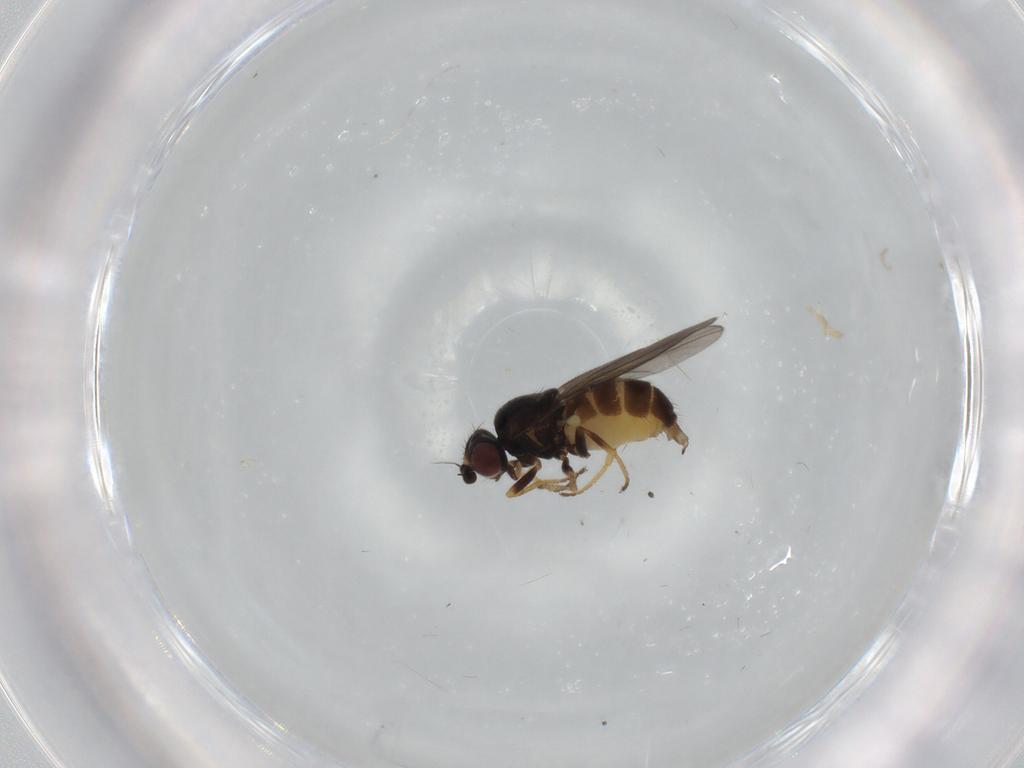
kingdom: Animalia
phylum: Arthropoda
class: Insecta
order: Diptera
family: Chloropidae
